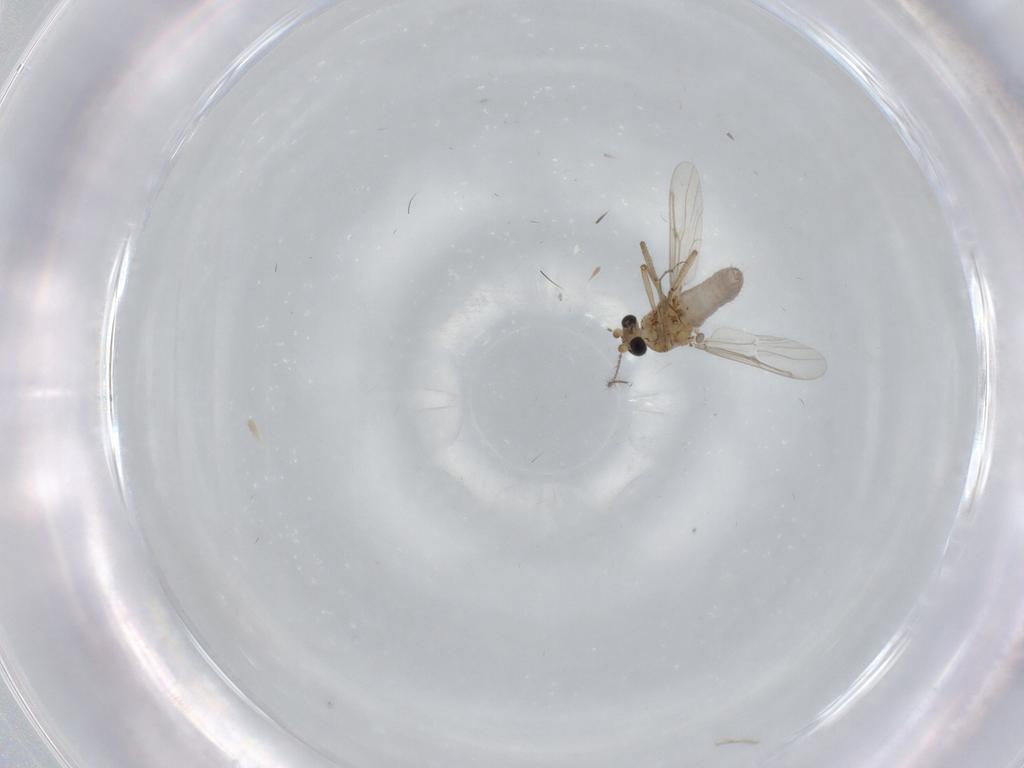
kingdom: Animalia
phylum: Arthropoda
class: Insecta
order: Diptera
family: Ceratopogonidae
